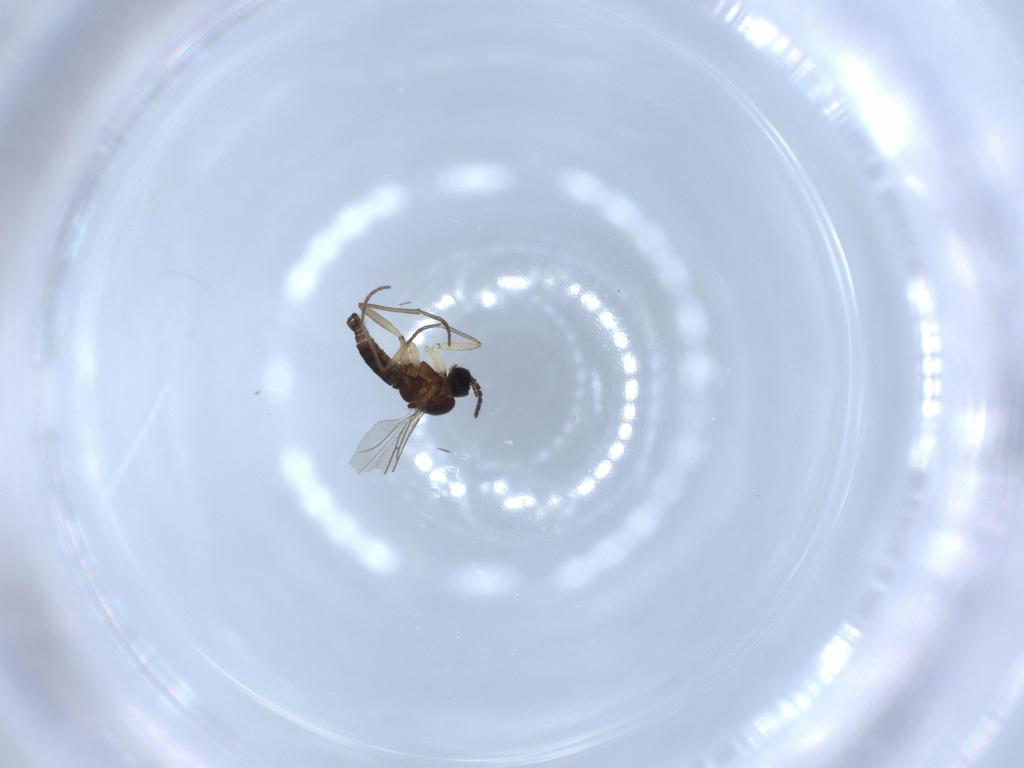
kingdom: Animalia
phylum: Arthropoda
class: Insecta
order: Diptera
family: Sciaridae
